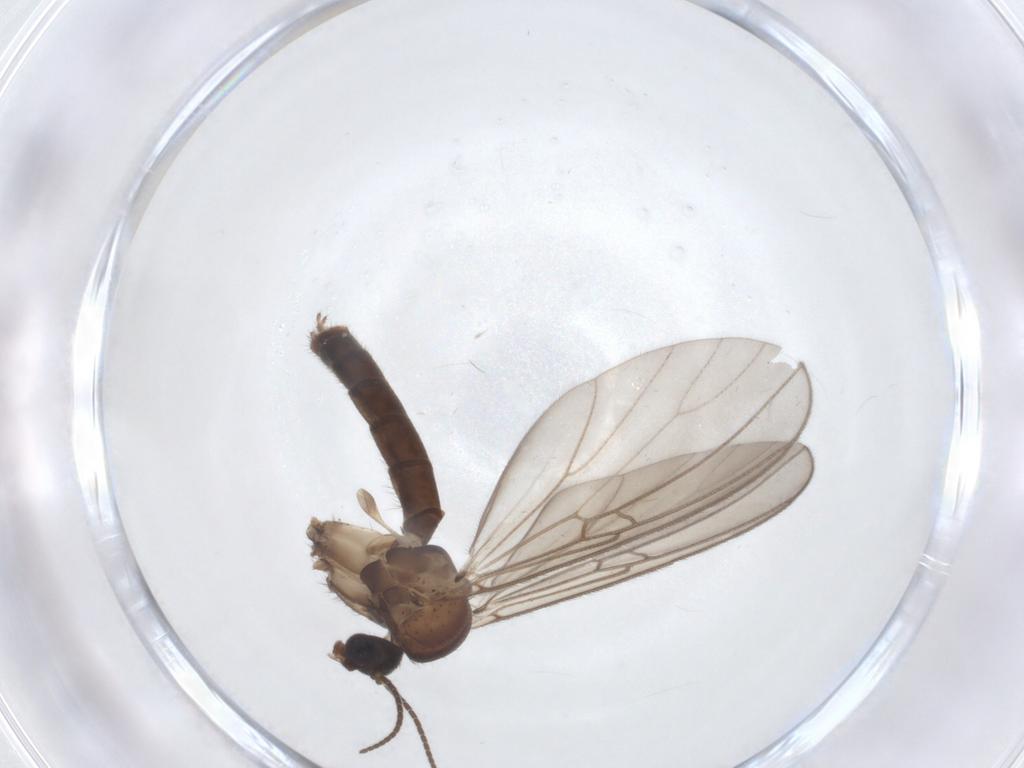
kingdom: Animalia
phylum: Arthropoda
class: Insecta
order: Diptera
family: Mycetophilidae
